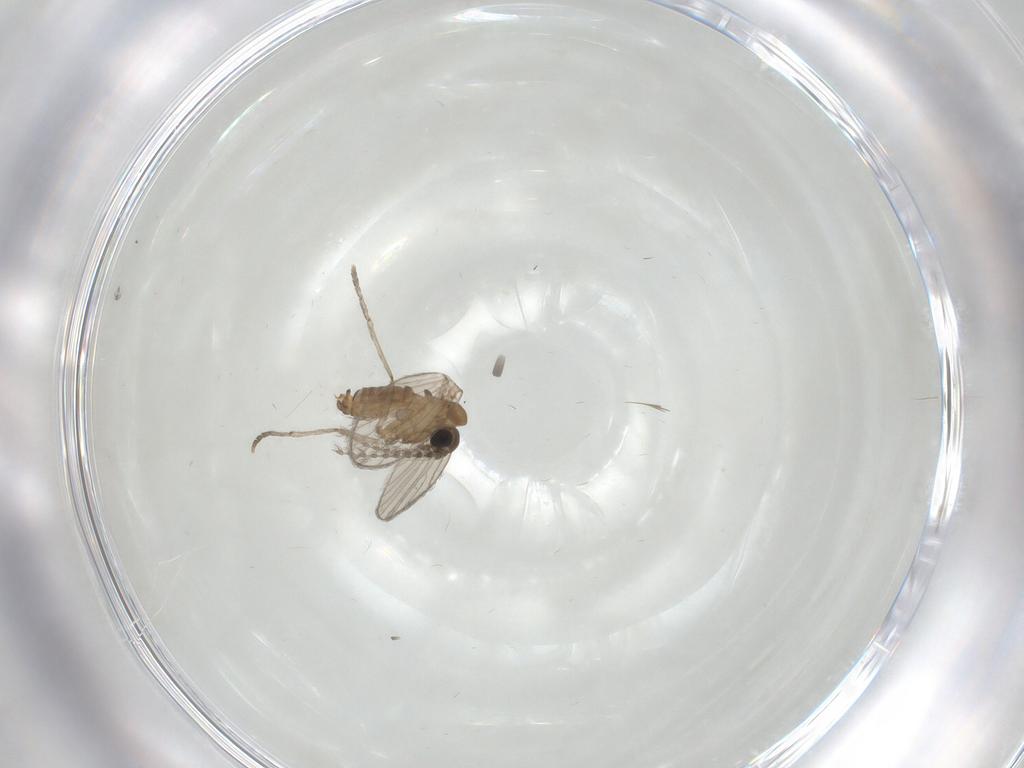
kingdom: Animalia
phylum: Arthropoda
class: Insecta
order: Diptera
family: Psychodidae
